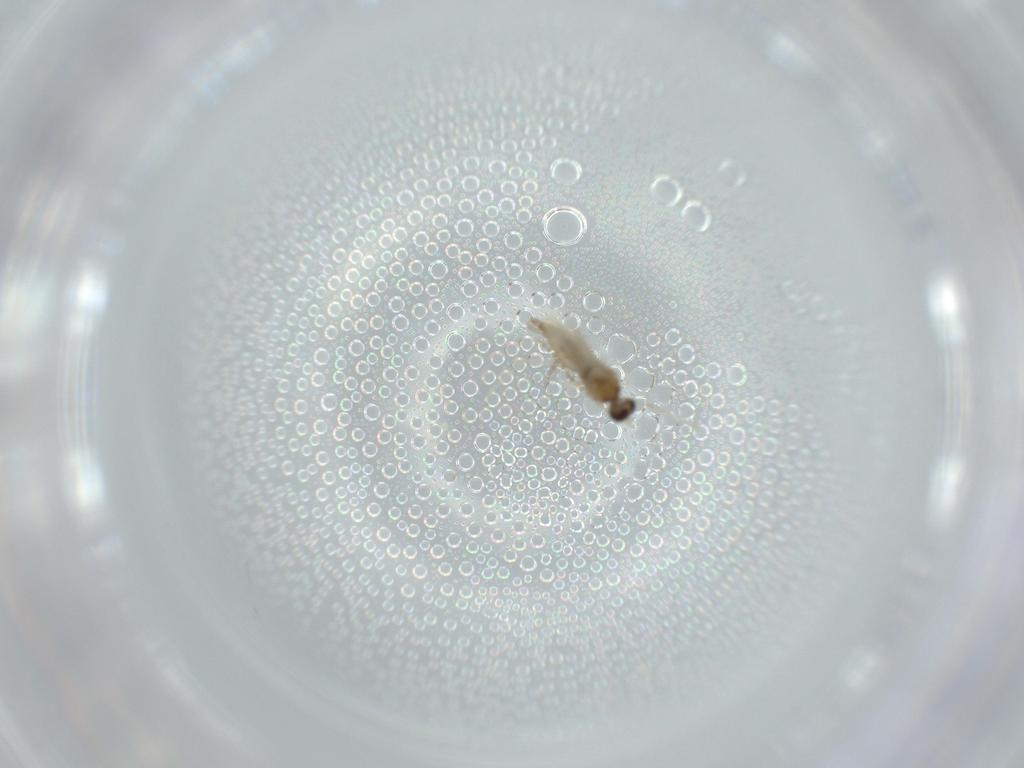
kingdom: Animalia
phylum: Arthropoda
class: Insecta
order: Diptera
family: Cecidomyiidae
